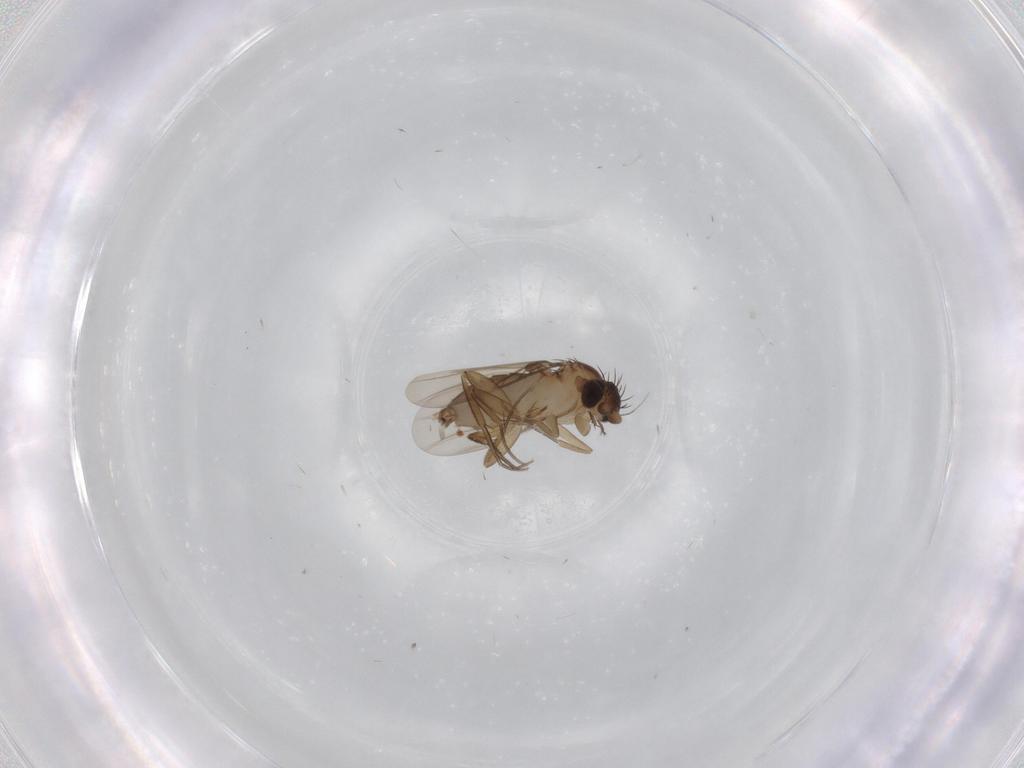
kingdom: Animalia
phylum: Arthropoda
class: Insecta
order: Diptera
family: Phoridae
